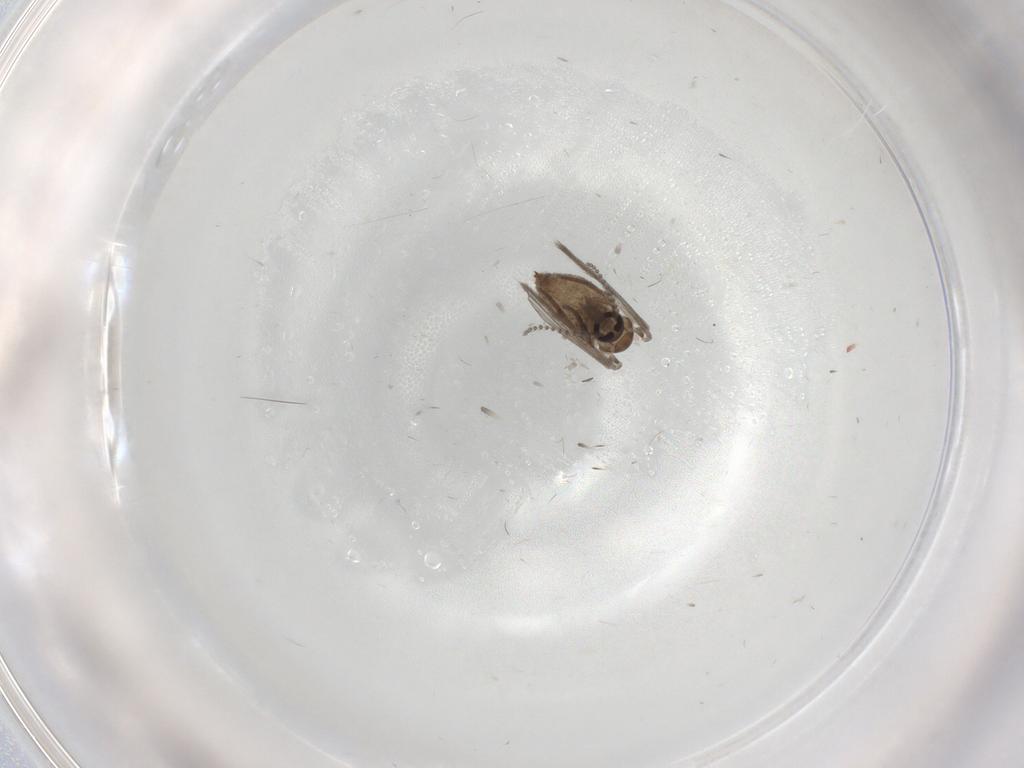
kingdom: Animalia
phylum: Arthropoda
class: Insecta
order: Diptera
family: Psychodidae
